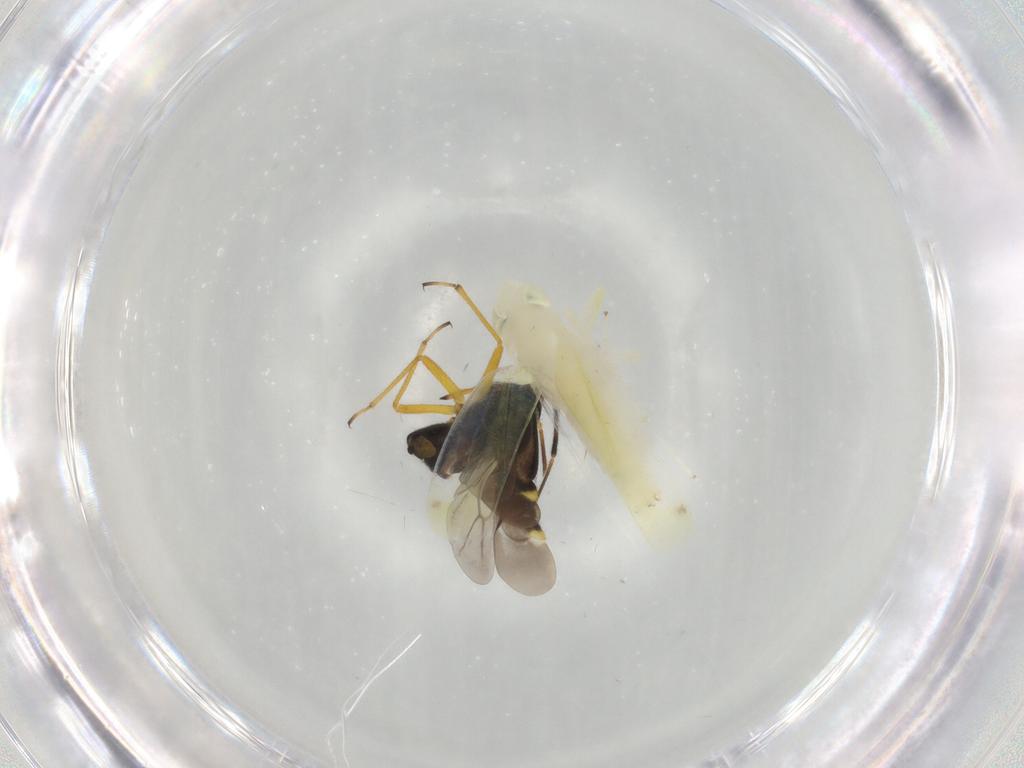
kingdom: Animalia
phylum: Arthropoda
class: Insecta
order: Hemiptera
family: Cicadellidae
